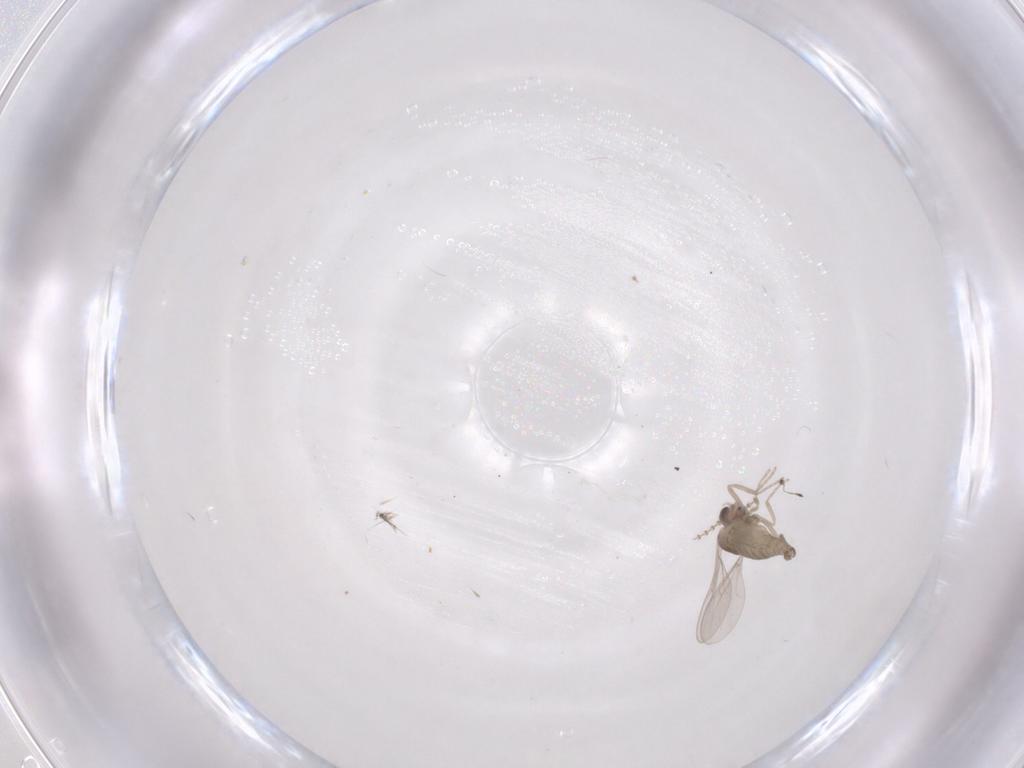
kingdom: Animalia
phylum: Arthropoda
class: Insecta
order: Diptera
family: Cecidomyiidae
